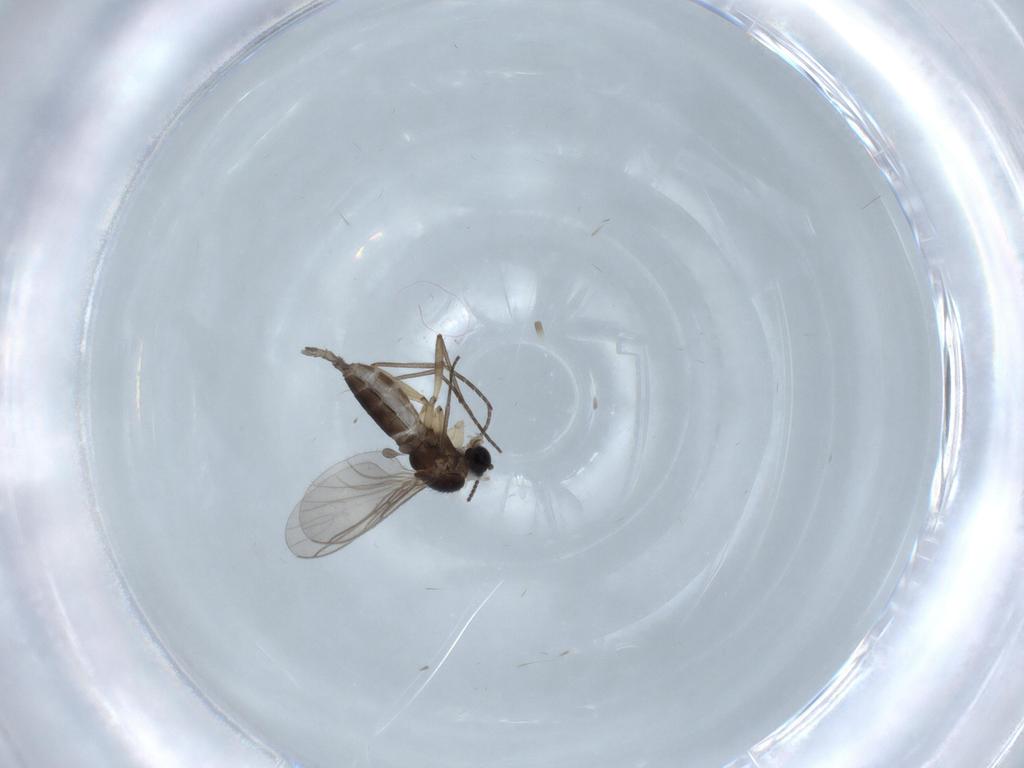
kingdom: Animalia
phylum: Arthropoda
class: Insecta
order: Diptera
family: Sciaridae
